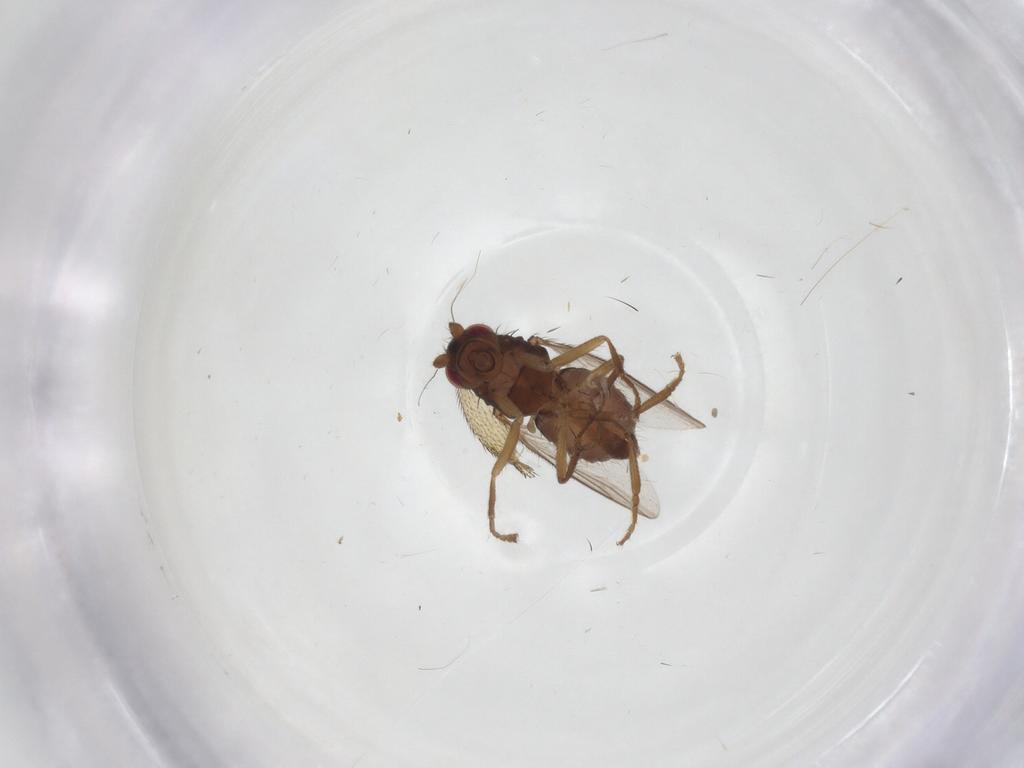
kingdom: Animalia
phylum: Arthropoda
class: Insecta
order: Diptera
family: Dolichopodidae
